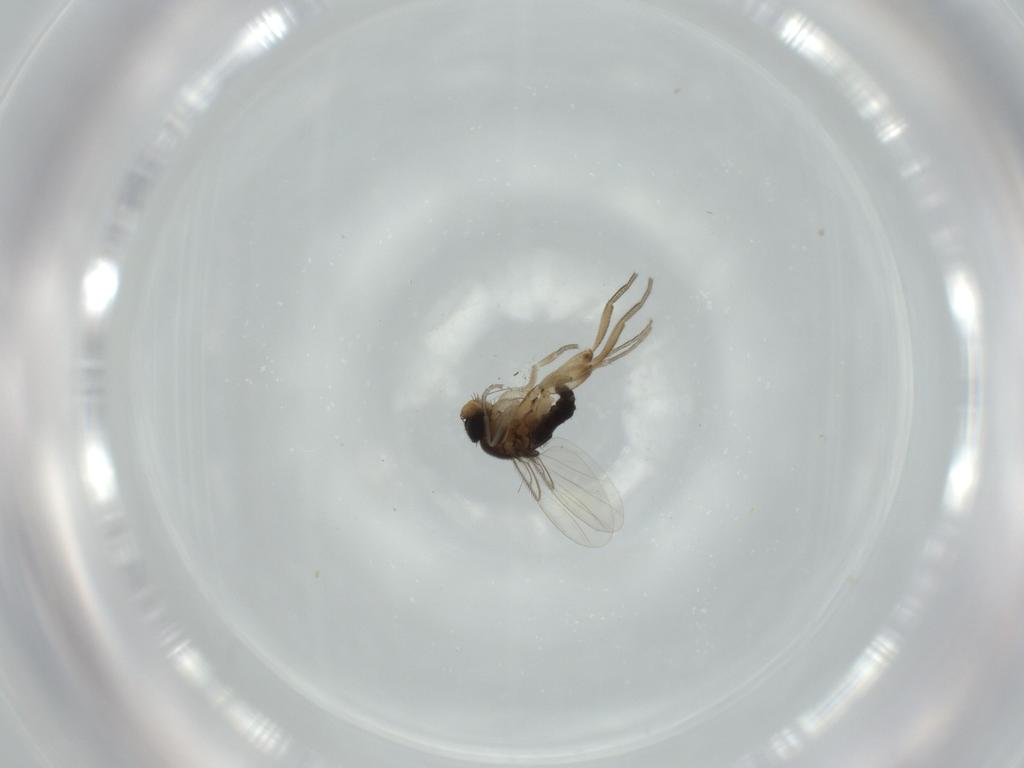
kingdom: Animalia
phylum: Arthropoda
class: Insecta
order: Diptera
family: Phoridae
